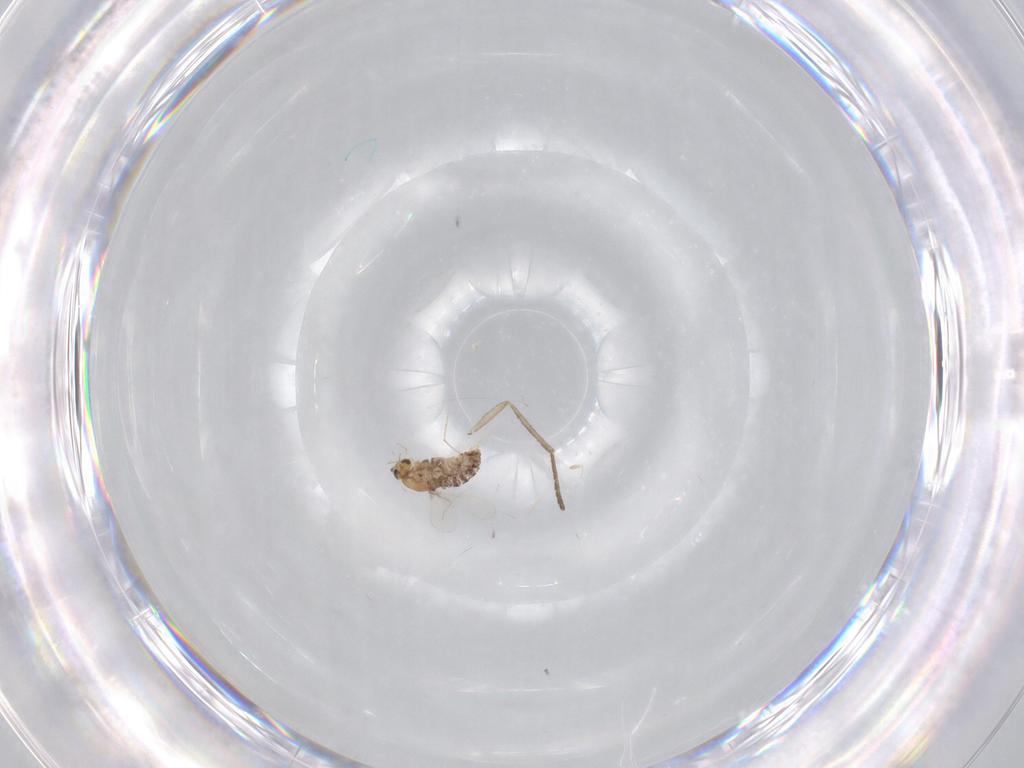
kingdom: Animalia
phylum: Arthropoda
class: Insecta
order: Diptera
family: Chironomidae
